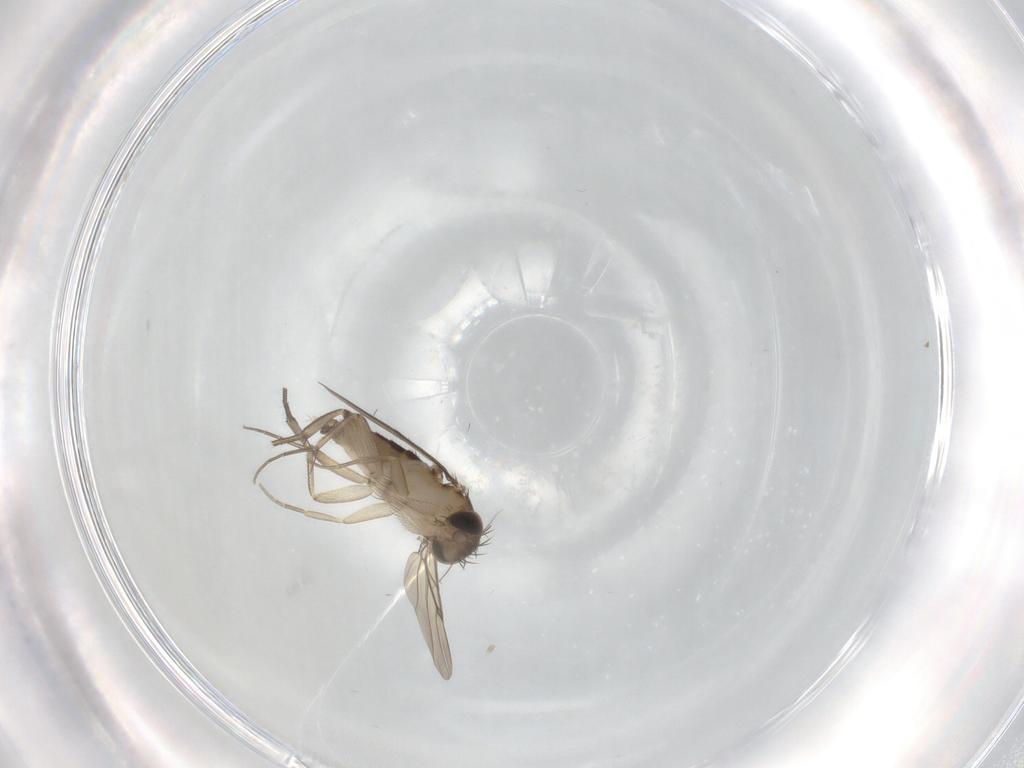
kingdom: Animalia
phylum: Arthropoda
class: Insecta
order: Diptera
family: Phoridae
